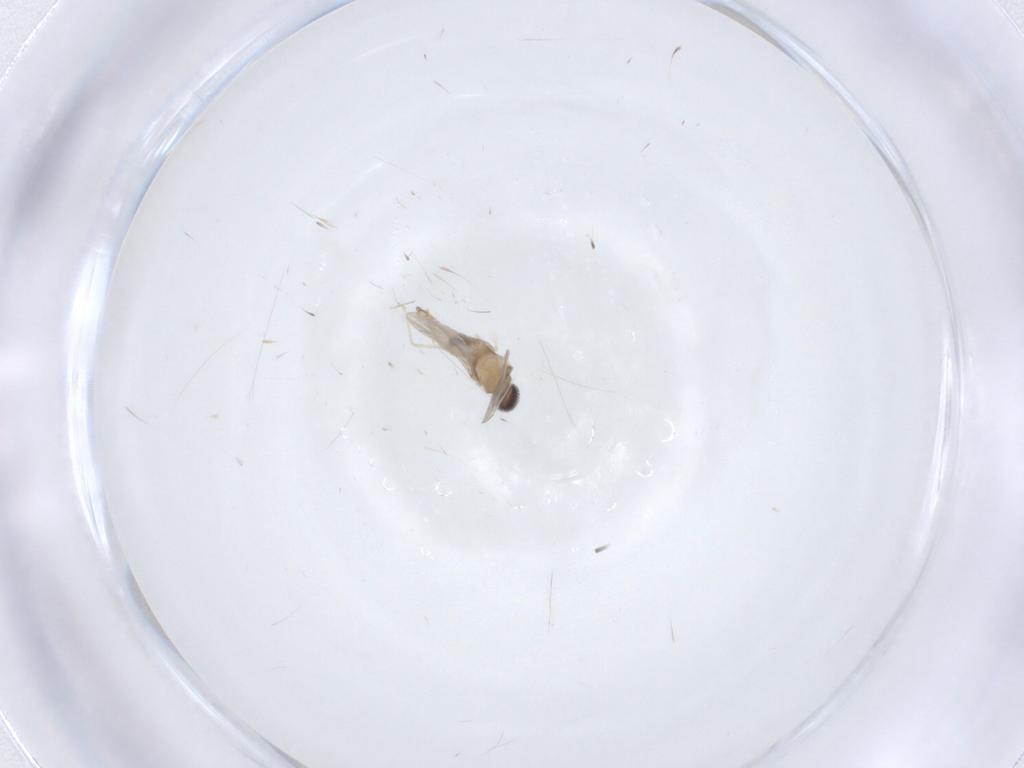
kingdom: Animalia
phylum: Arthropoda
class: Insecta
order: Diptera
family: Cecidomyiidae
